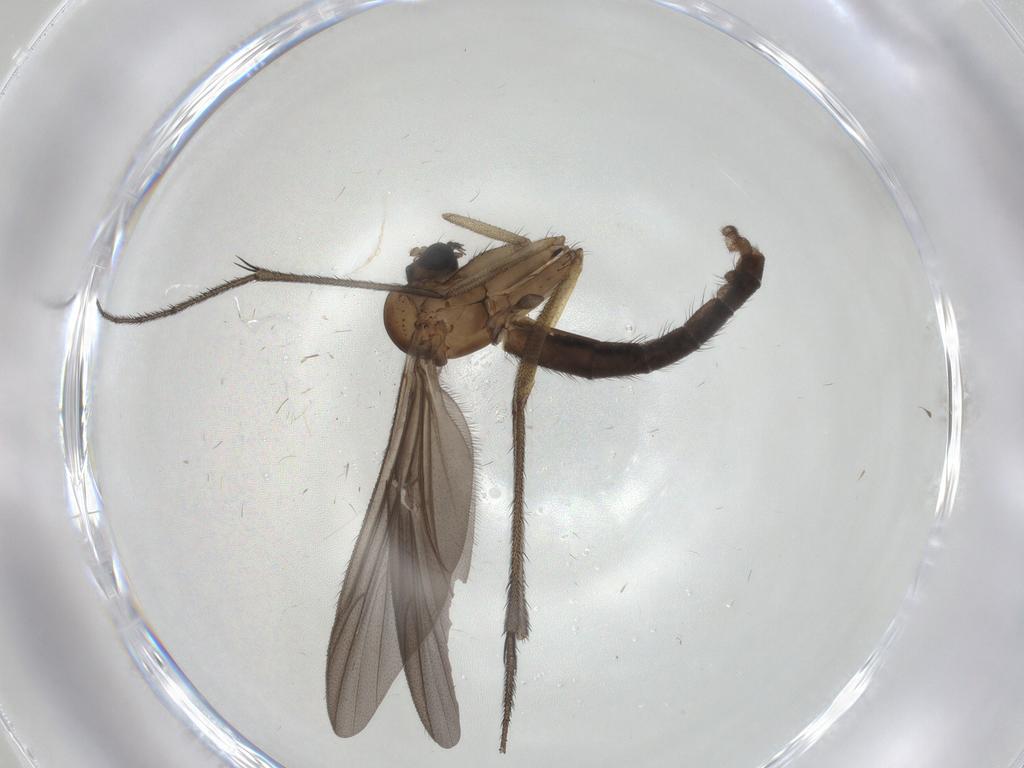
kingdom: Animalia
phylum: Arthropoda
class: Insecta
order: Diptera
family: Ditomyiidae
